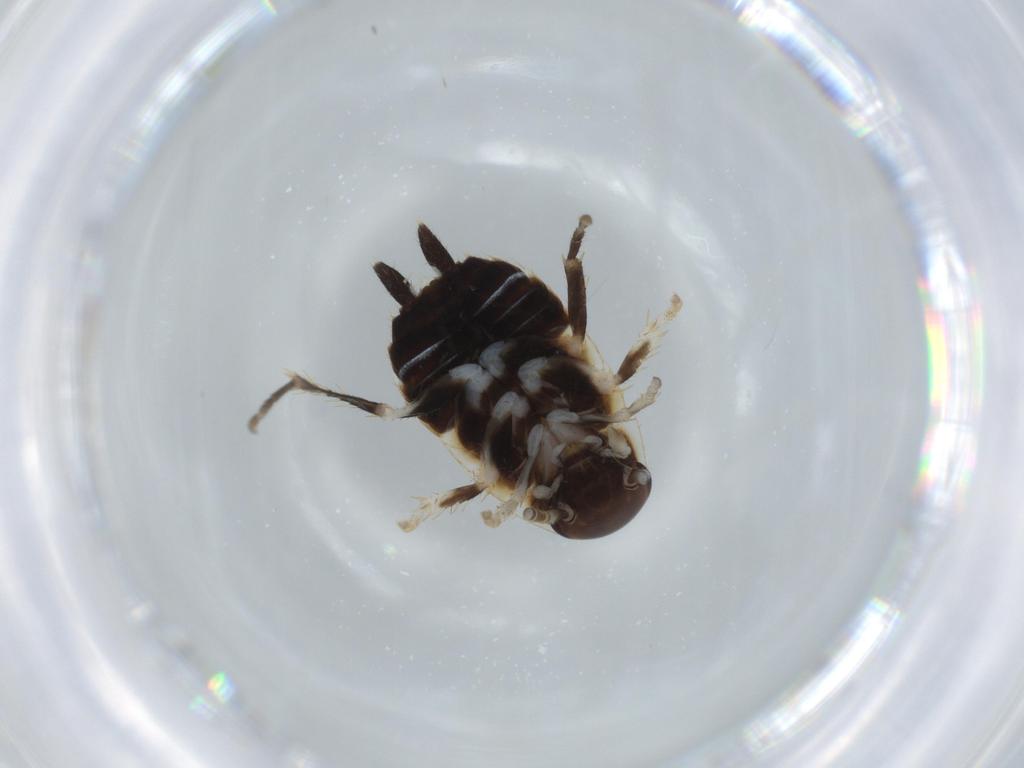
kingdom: Animalia
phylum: Arthropoda
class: Insecta
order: Blattodea
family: Ectobiidae
